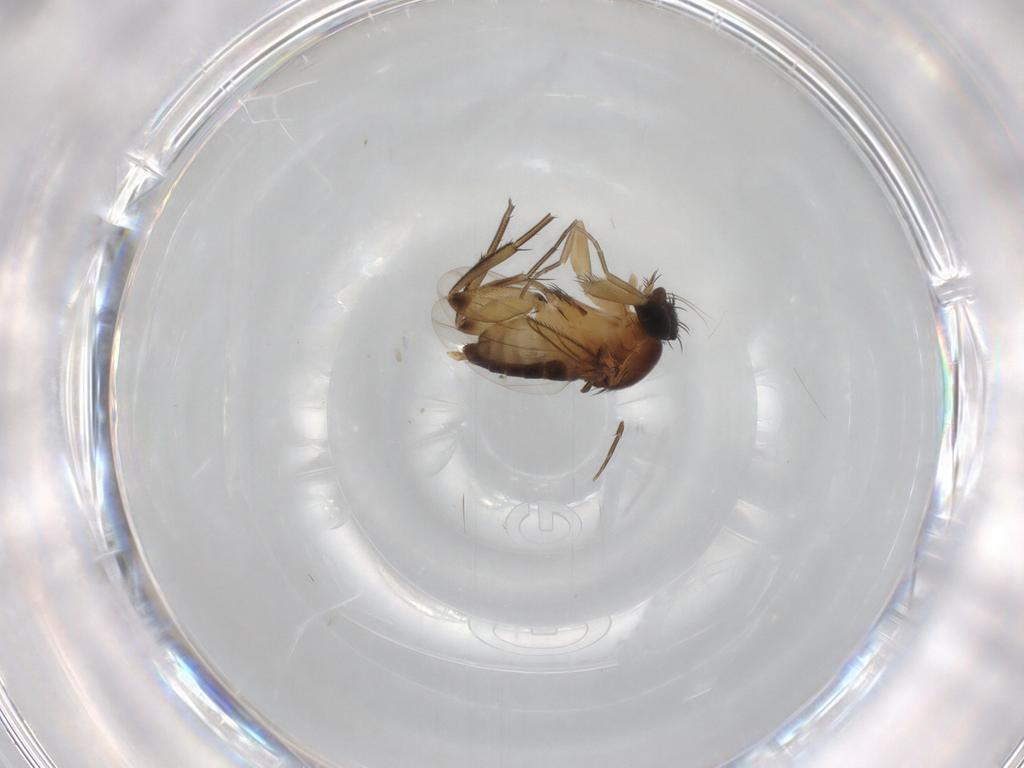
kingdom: Animalia
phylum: Arthropoda
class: Insecta
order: Diptera
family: Phoridae
